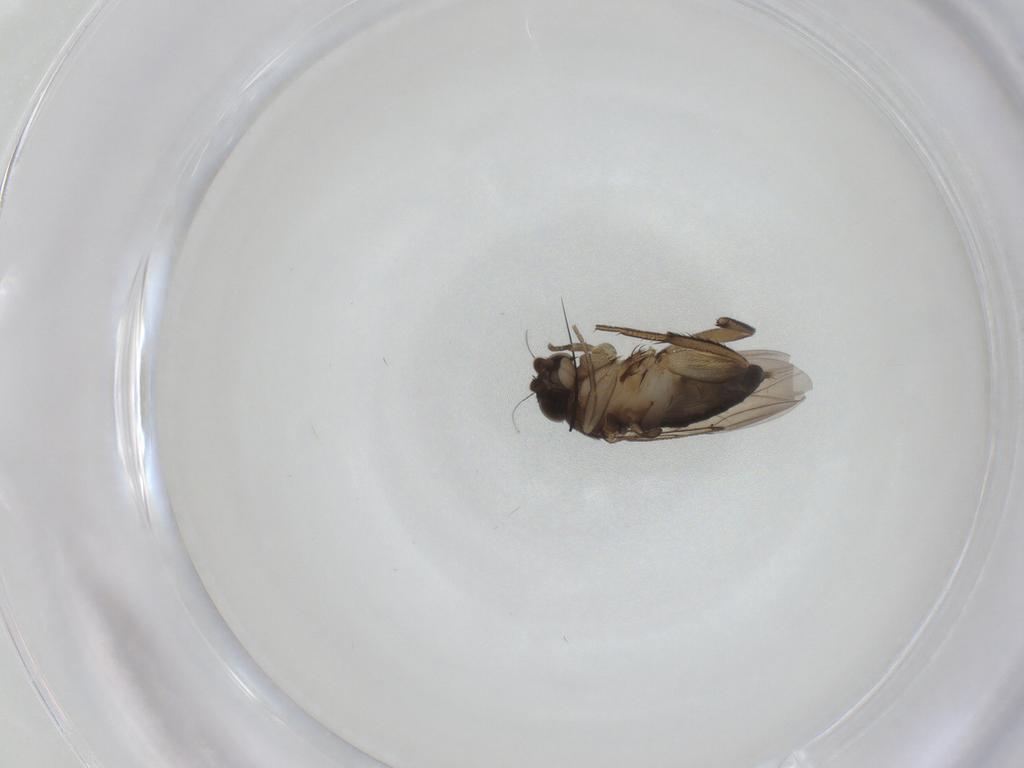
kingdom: Animalia
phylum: Arthropoda
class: Insecta
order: Diptera
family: Phoridae
